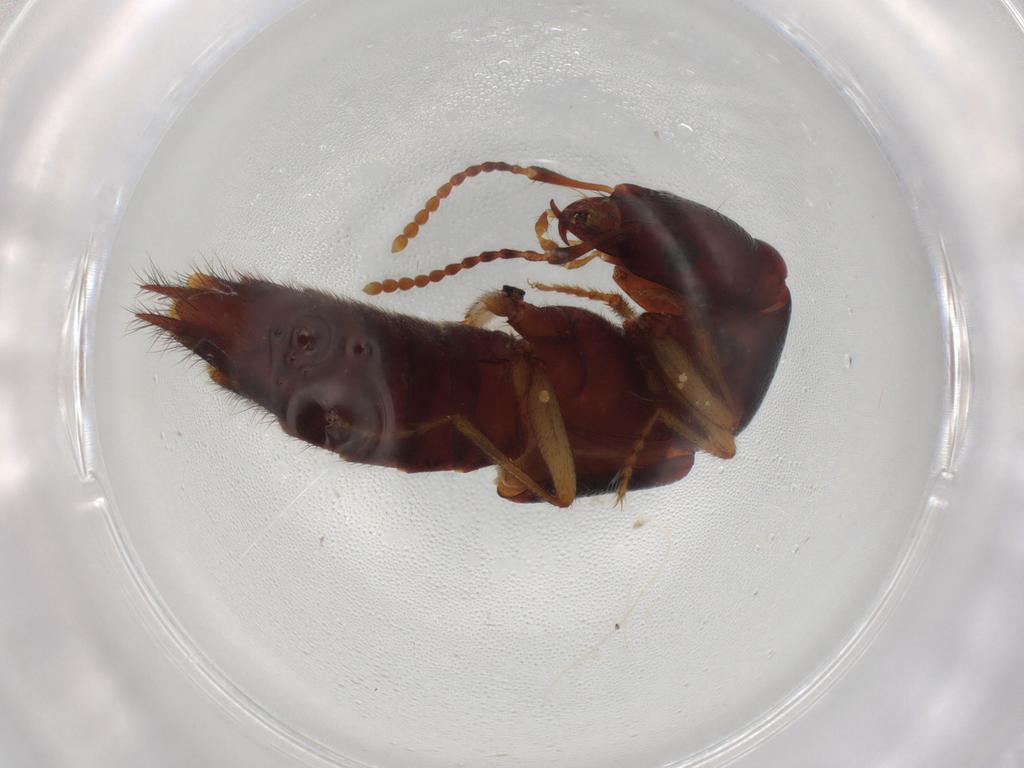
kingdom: Animalia
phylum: Arthropoda
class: Insecta
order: Coleoptera
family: Staphylinidae
